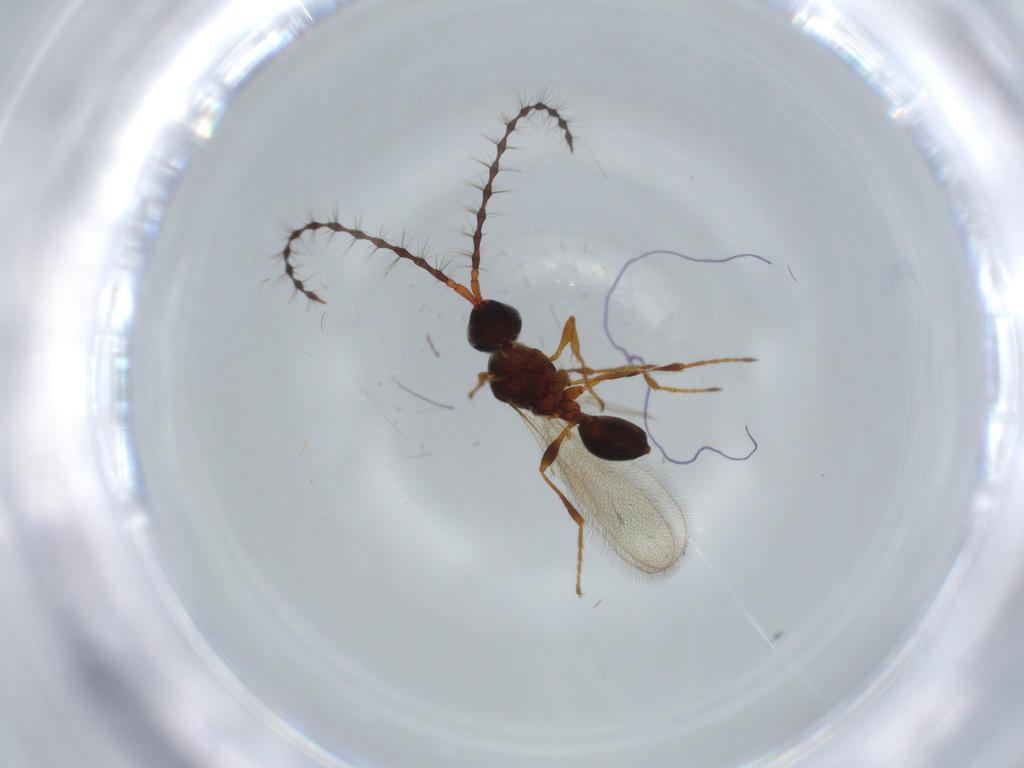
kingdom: Animalia
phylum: Arthropoda
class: Insecta
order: Hymenoptera
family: Diapriidae
